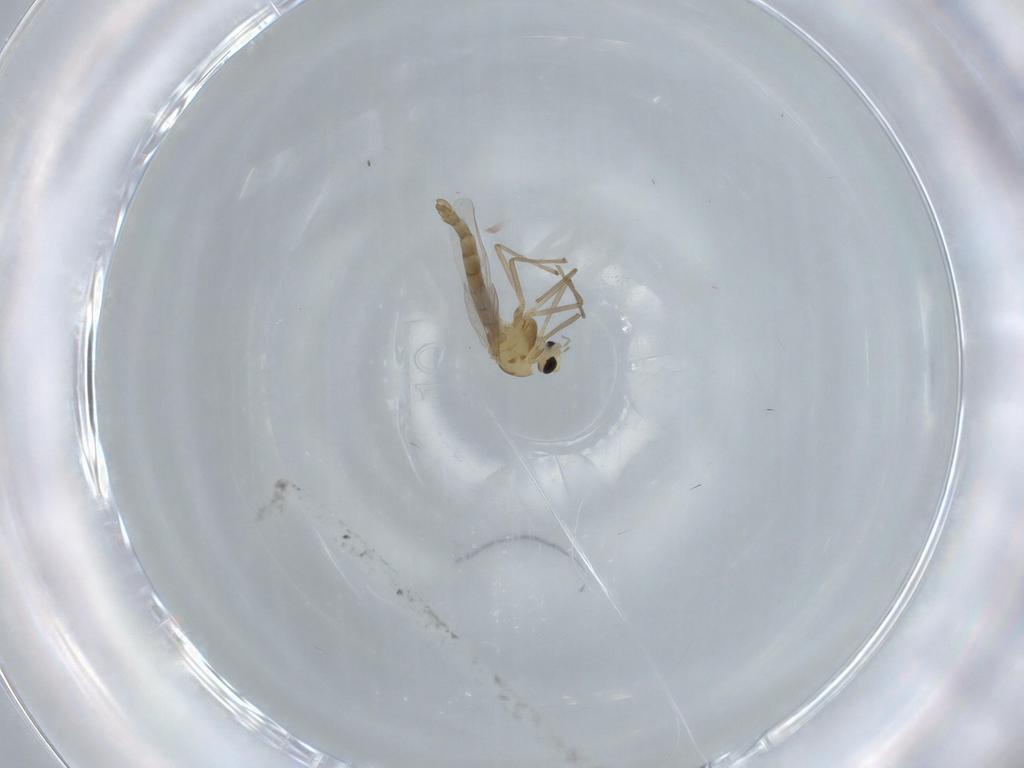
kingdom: Animalia
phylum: Arthropoda
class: Insecta
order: Diptera
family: Chironomidae
